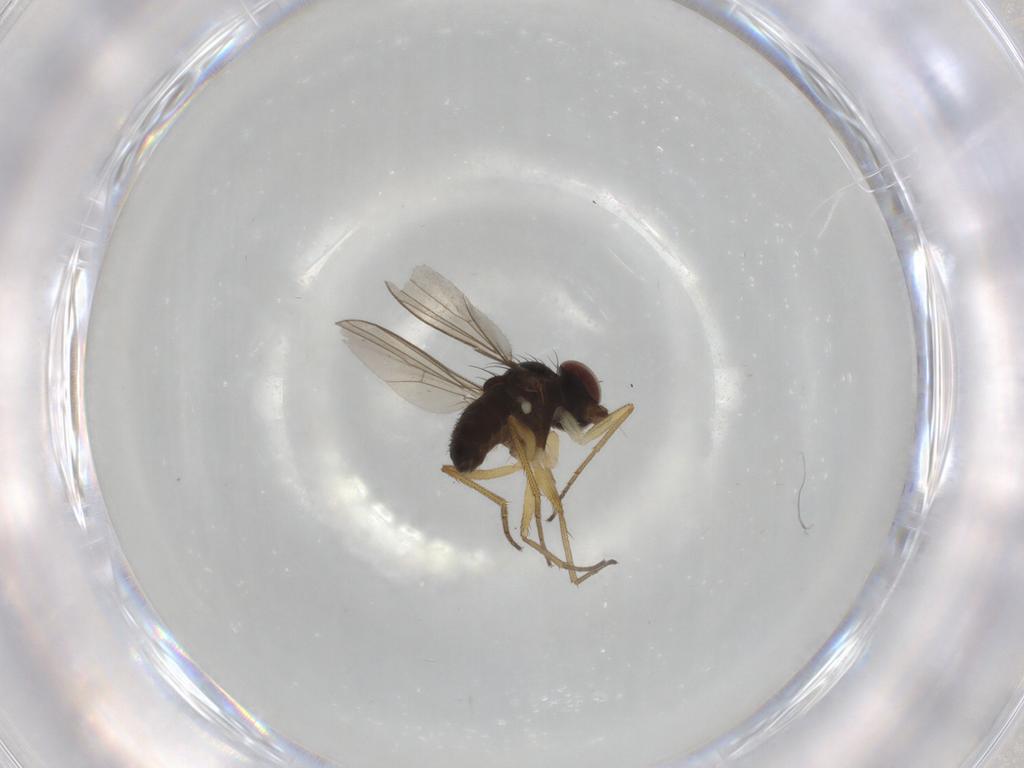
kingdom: Animalia
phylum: Arthropoda
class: Insecta
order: Diptera
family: Dolichopodidae
